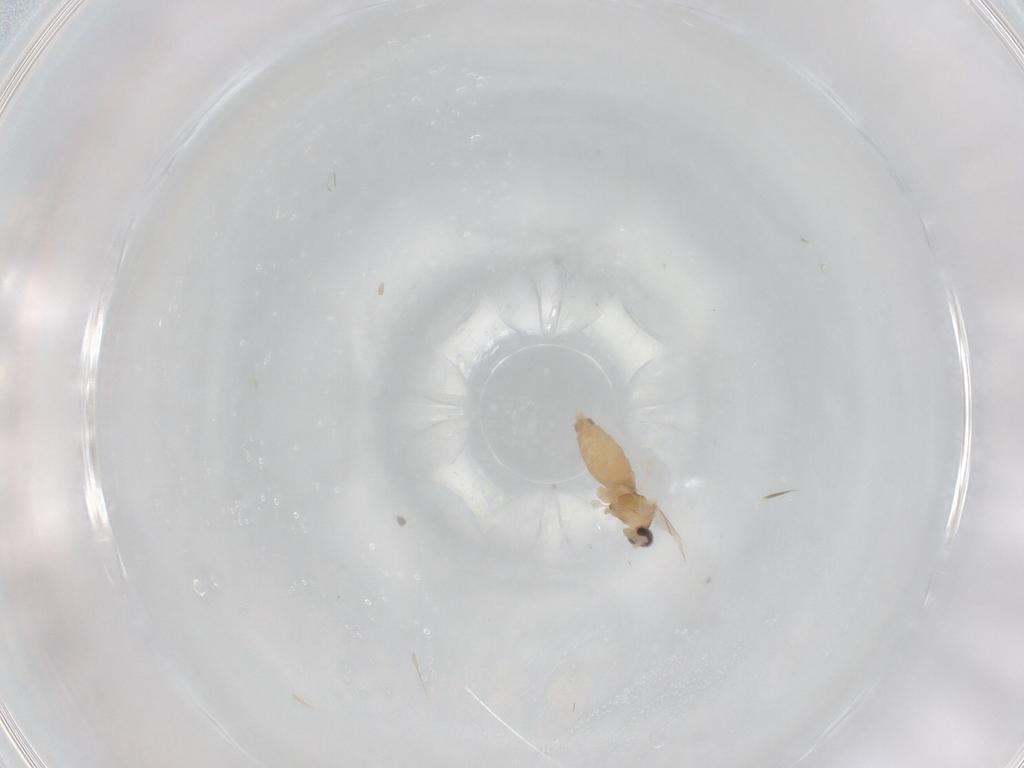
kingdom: Animalia
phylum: Arthropoda
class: Insecta
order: Diptera
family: Cecidomyiidae
